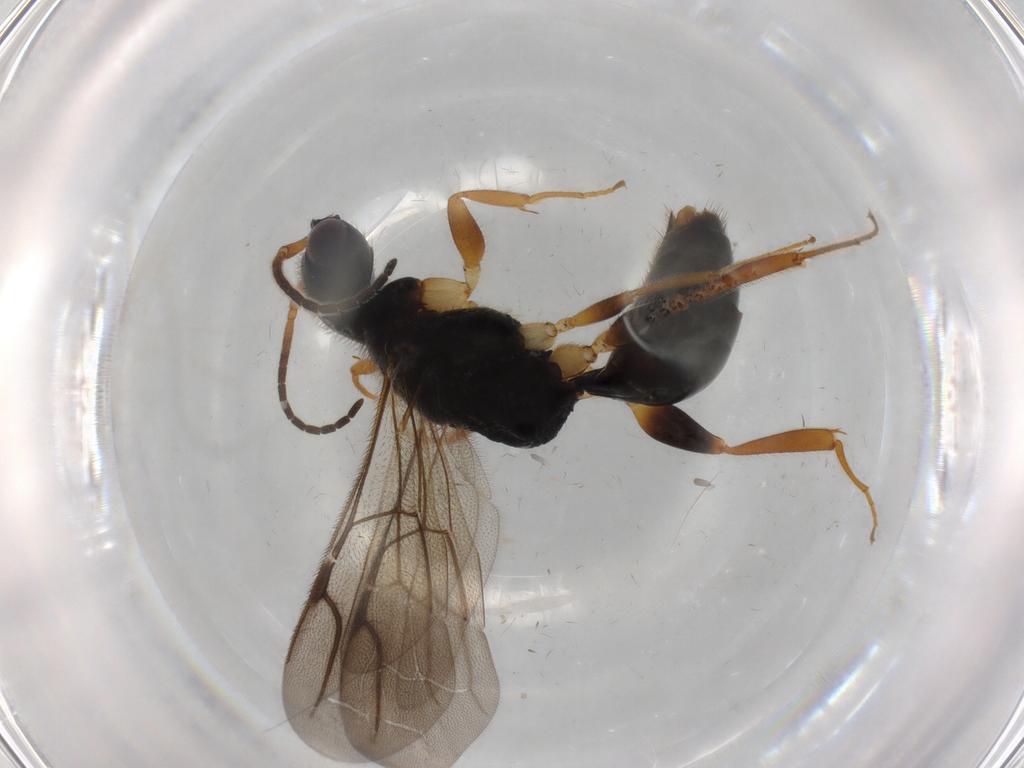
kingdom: Animalia
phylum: Arthropoda
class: Insecta
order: Hymenoptera
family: Bethylidae
